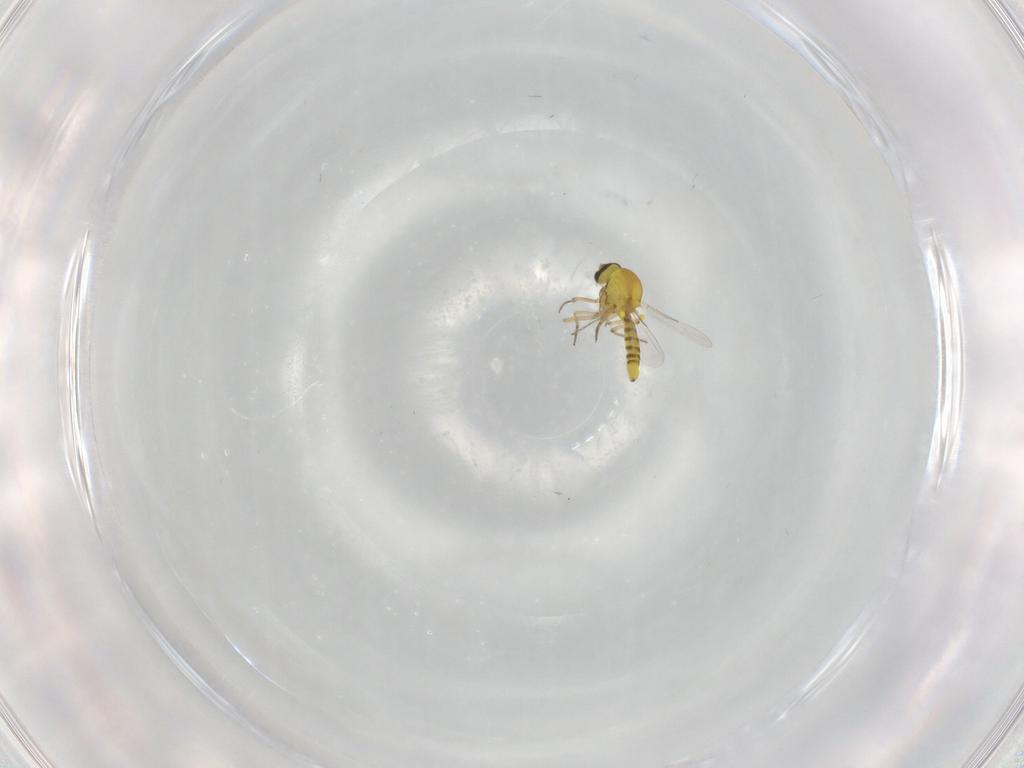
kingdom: Animalia
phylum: Arthropoda
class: Insecta
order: Diptera
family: Ceratopogonidae
